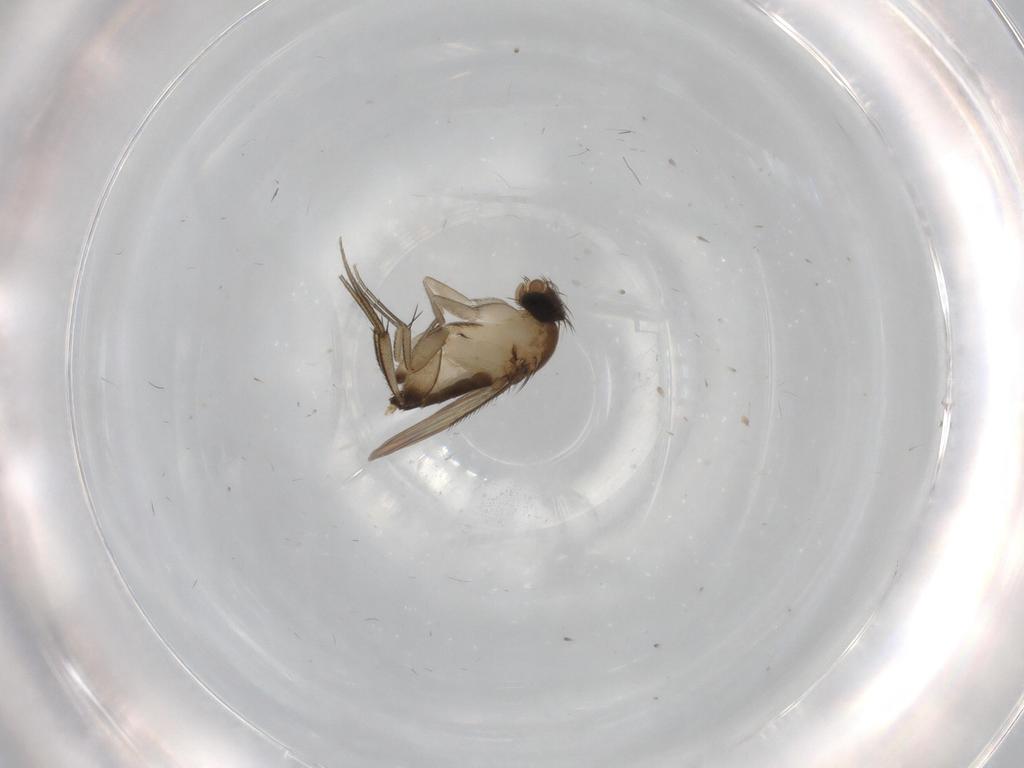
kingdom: Animalia
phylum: Arthropoda
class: Insecta
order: Diptera
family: Phoridae
